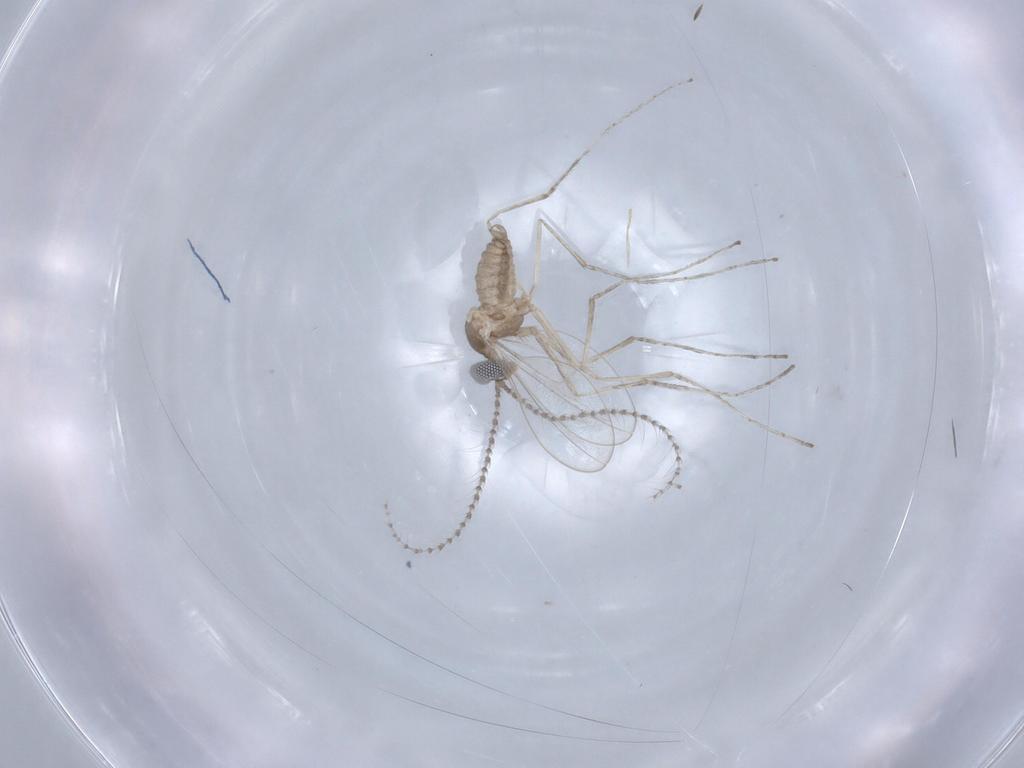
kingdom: Animalia
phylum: Arthropoda
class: Insecta
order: Diptera
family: Cecidomyiidae
